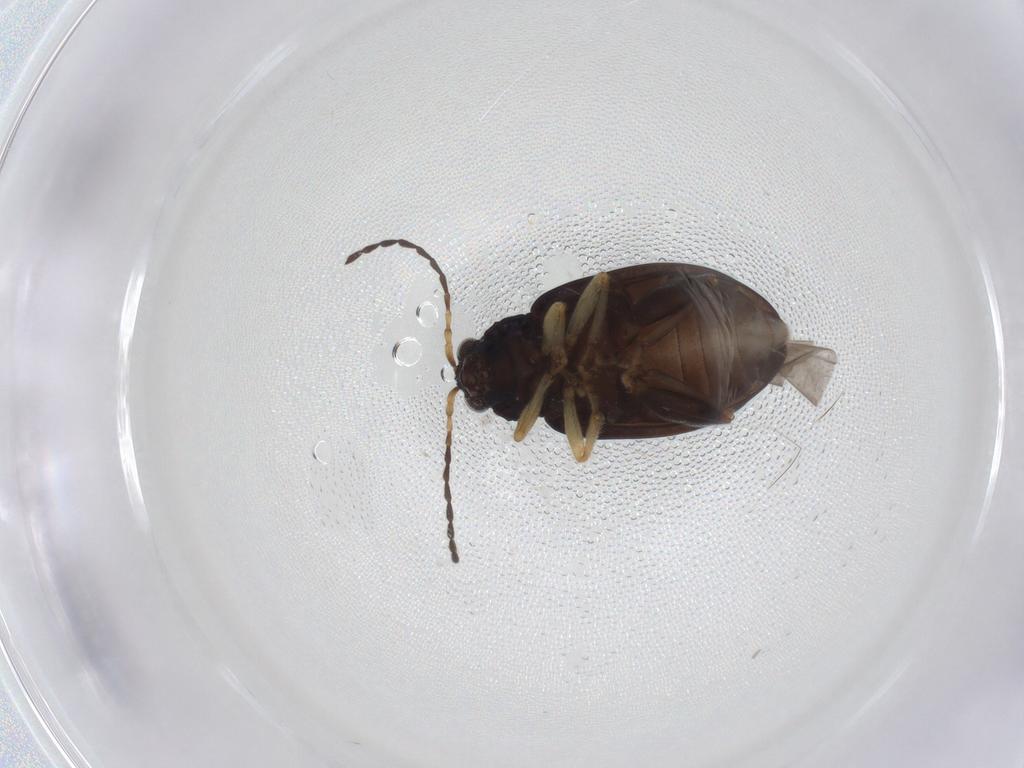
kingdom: Animalia
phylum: Arthropoda
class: Insecta
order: Coleoptera
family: Chrysomelidae
